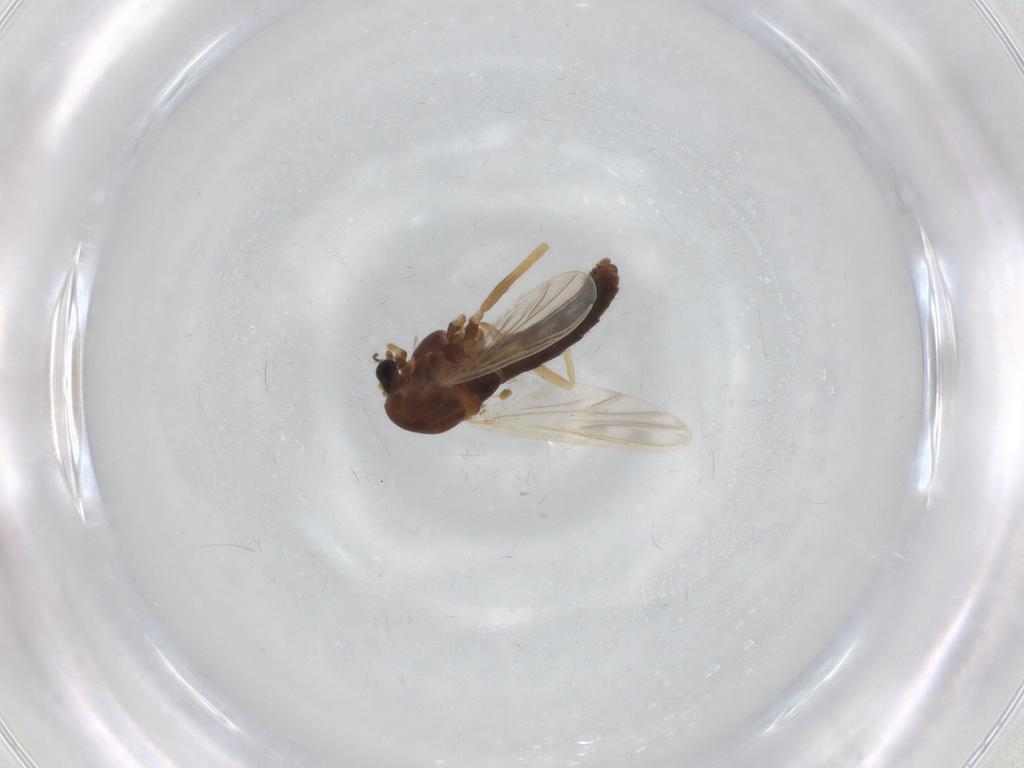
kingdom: Animalia
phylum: Arthropoda
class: Insecta
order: Diptera
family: Chironomidae
